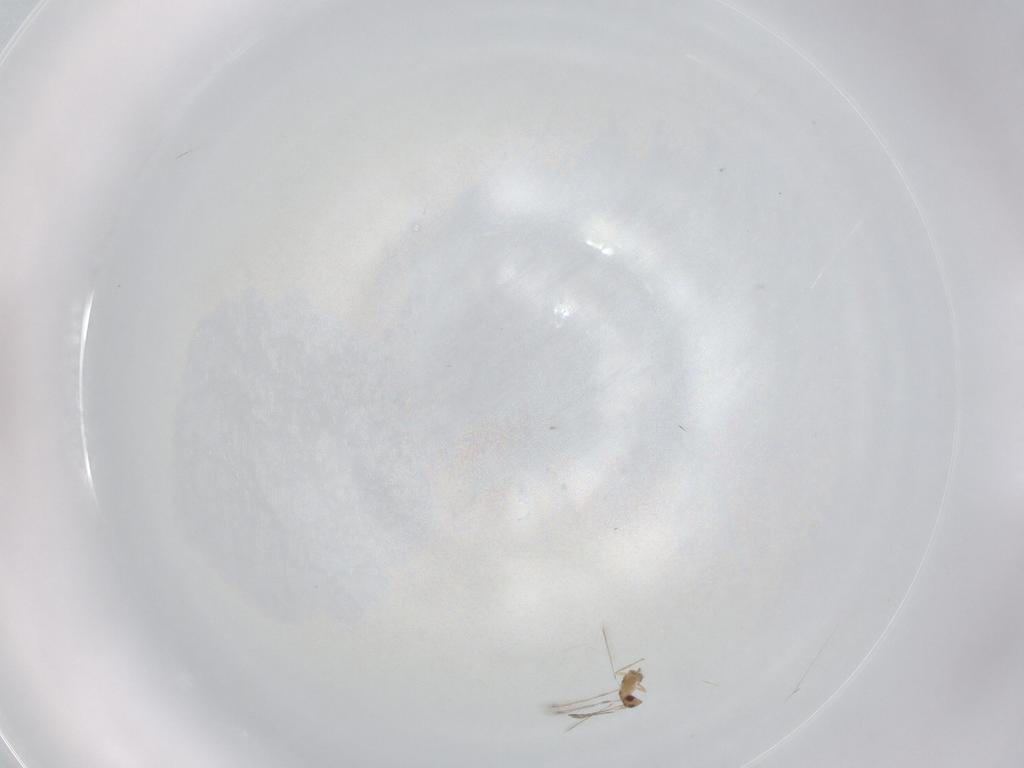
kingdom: Animalia
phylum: Arthropoda
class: Insecta
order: Hymenoptera
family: Mymaridae
